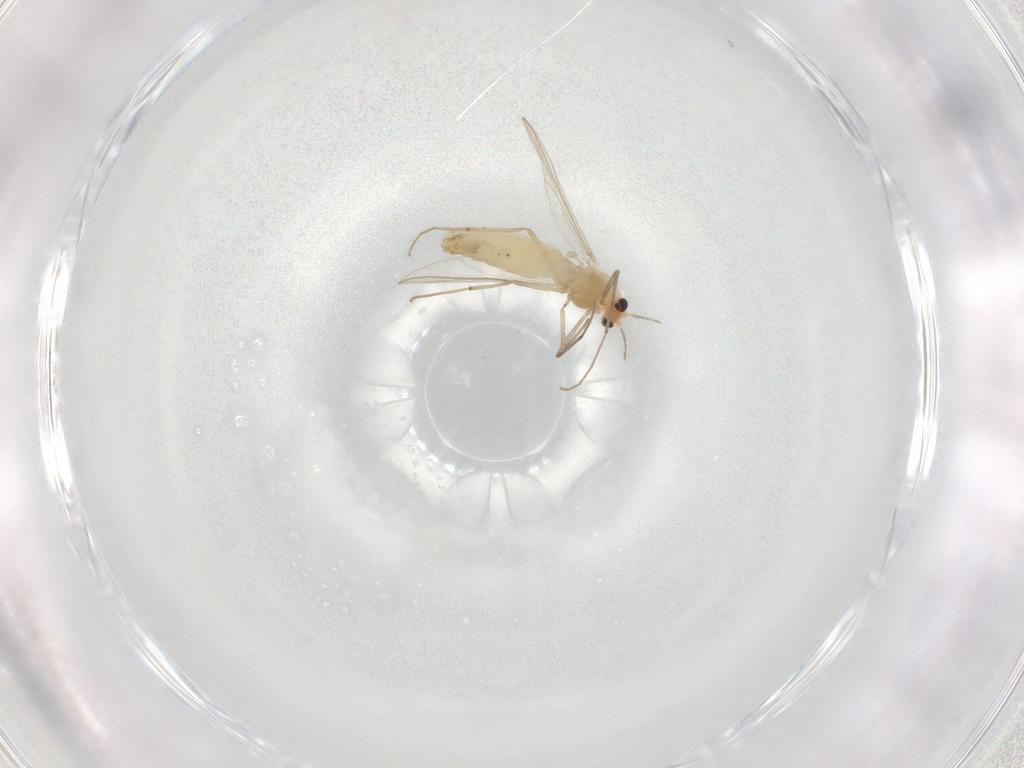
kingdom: Animalia
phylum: Arthropoda
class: Insecta
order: Diptera
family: Chironomidae
